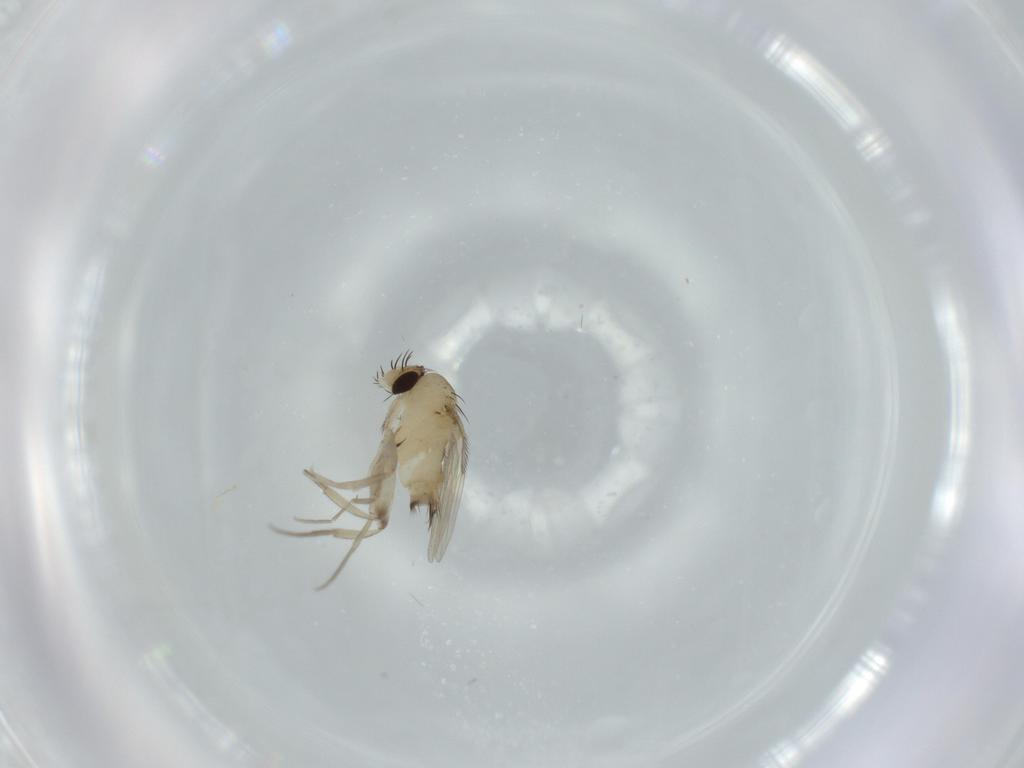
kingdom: Animalia
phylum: Arthropoda
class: Insecta
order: Diptera
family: Phoridae
